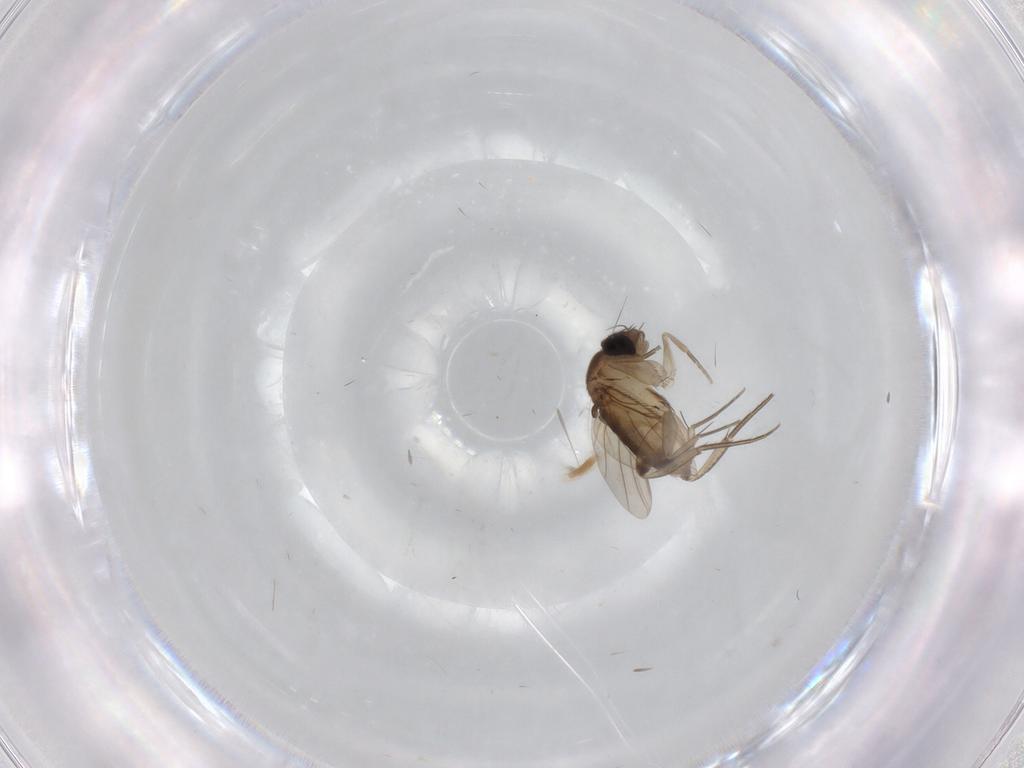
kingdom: Animalia
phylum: Arthropoda
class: Insecta
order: Diptera
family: Phoridae
